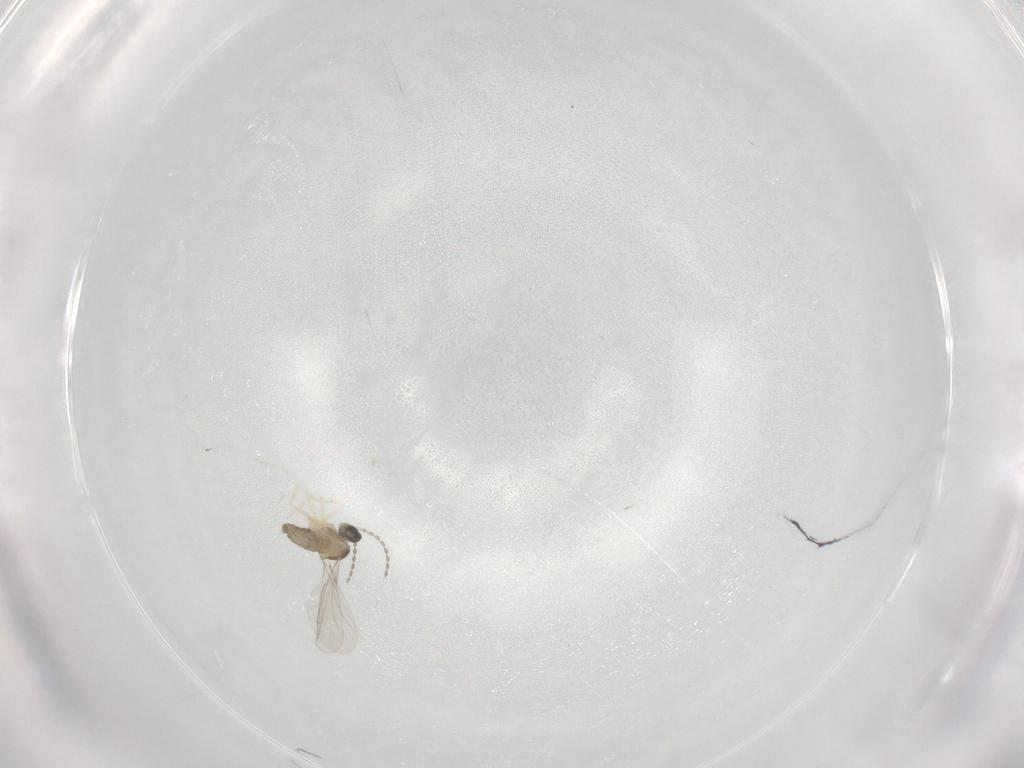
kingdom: Animalia
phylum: Arthropoda
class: Insecta
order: Diptera
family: Cecidomyiidae
